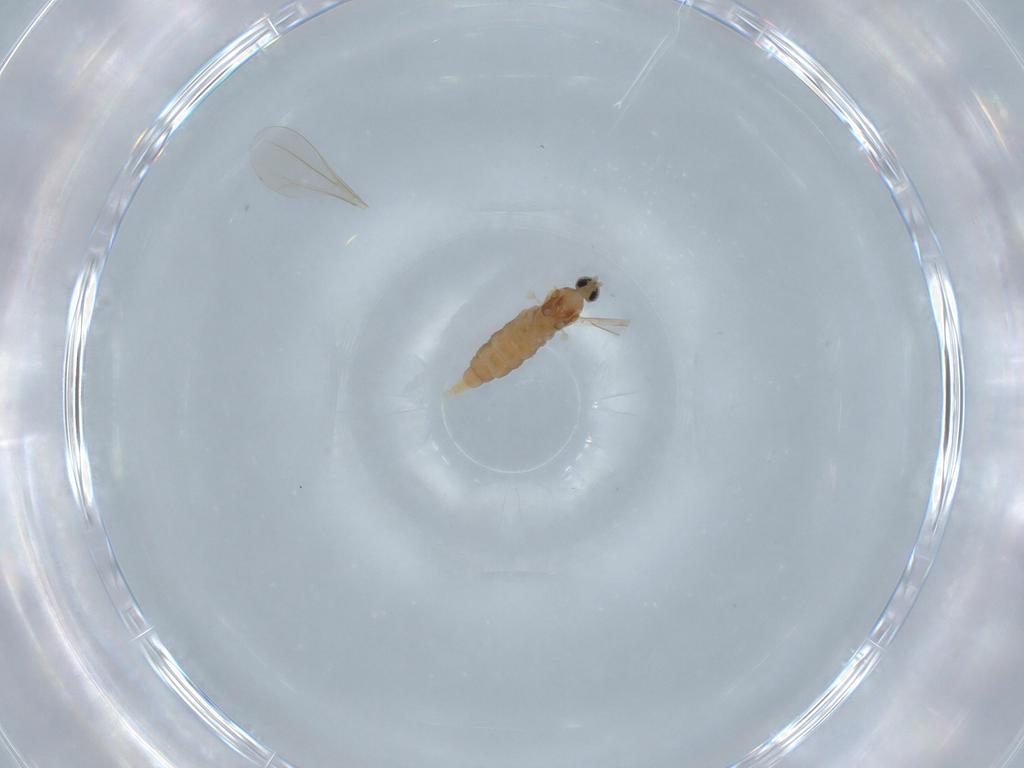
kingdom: Animalia
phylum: Arthropoda
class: Insecta
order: Diptera
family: Cecidomyiidae
